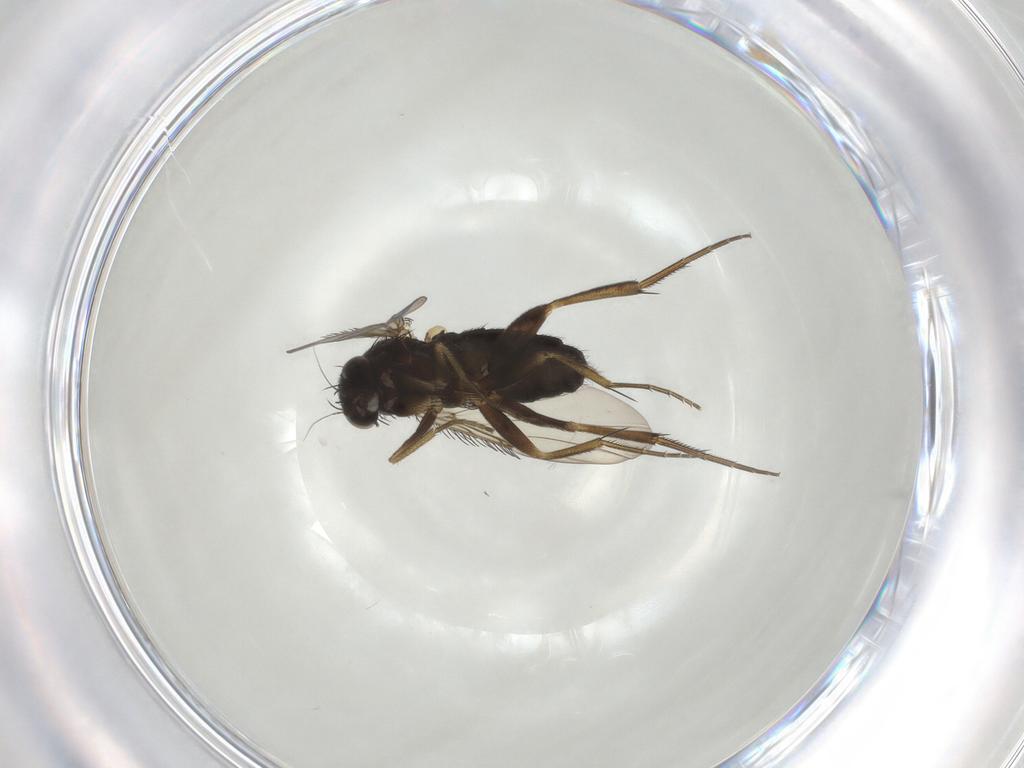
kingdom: Animalia
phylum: Arthropoda
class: Insecta
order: Diptera
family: Phoridae
